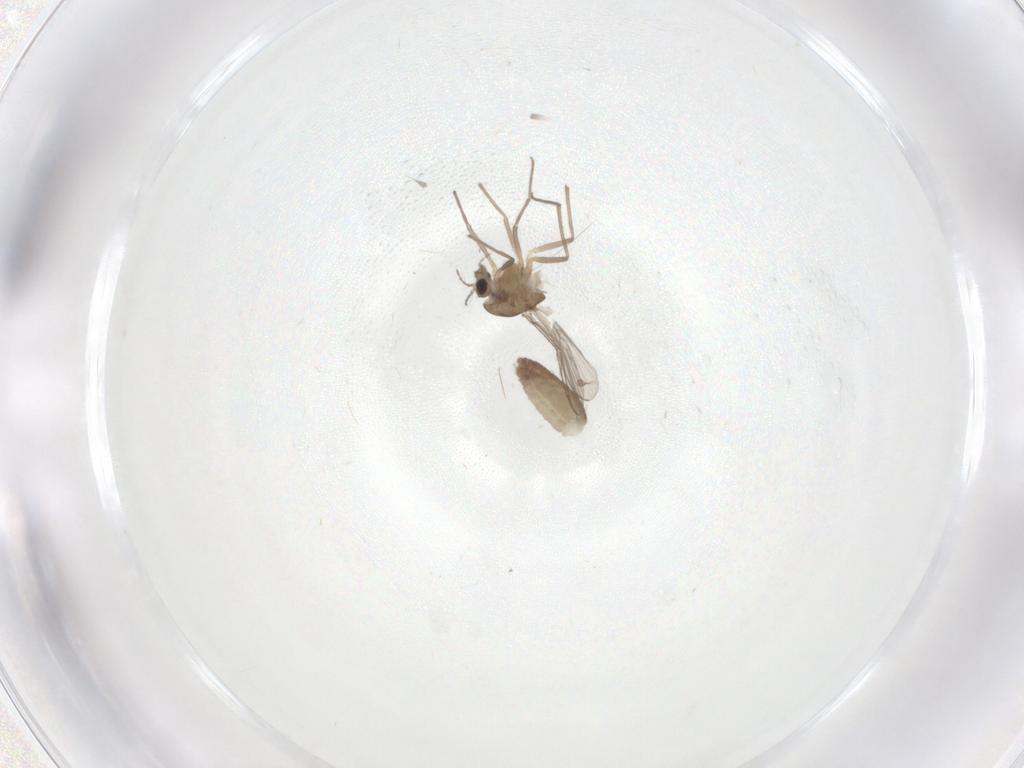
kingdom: Animalia
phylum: Arthropoda
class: Insecta
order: Diptera
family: Chironomidae
